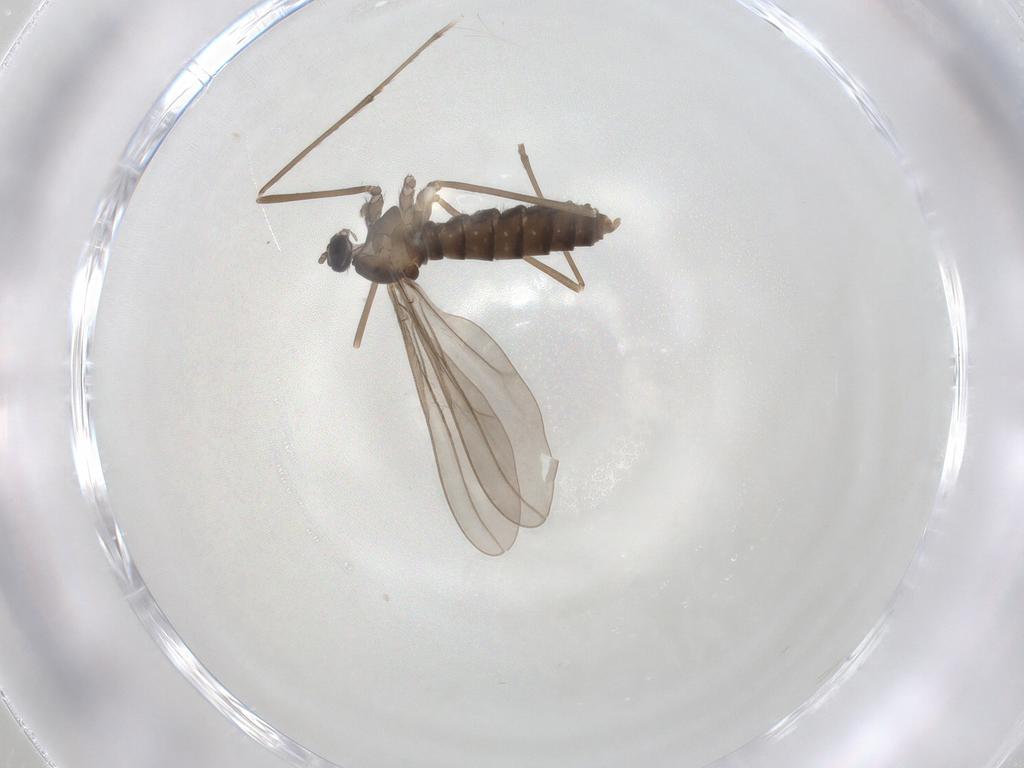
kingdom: Animalia
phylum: Arthropoda
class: Insecta
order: Diptera
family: Cecidomyiidae
